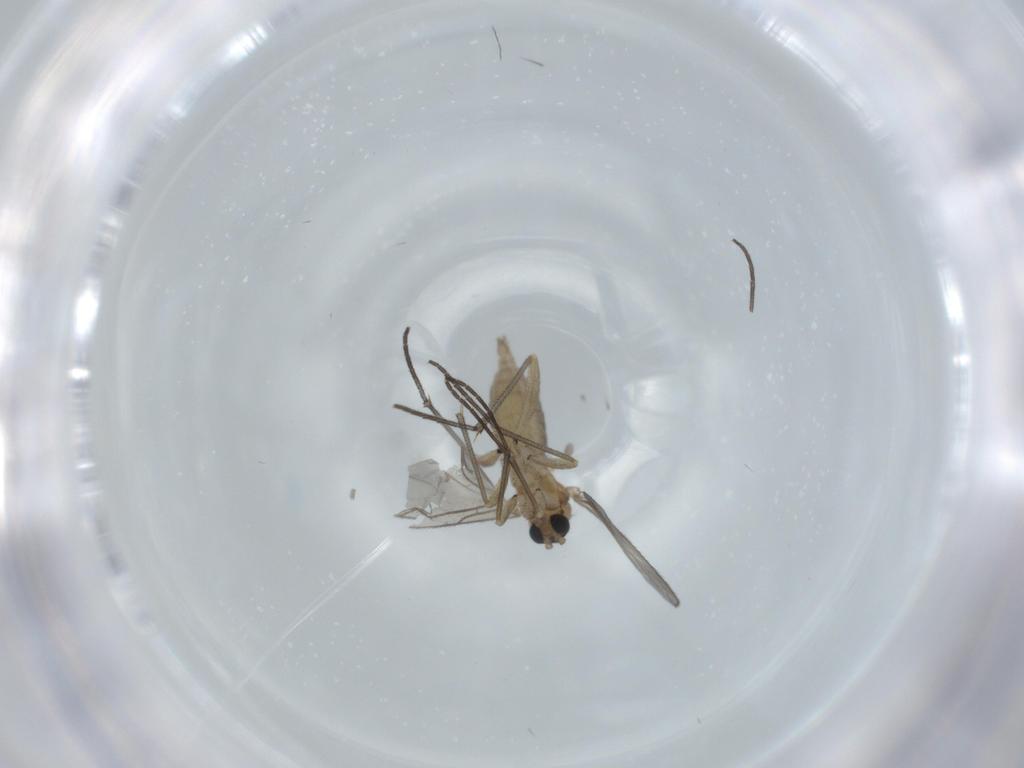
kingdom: Animalia
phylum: Arthropoda
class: Insecta
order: Diptera
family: Sciaridae
